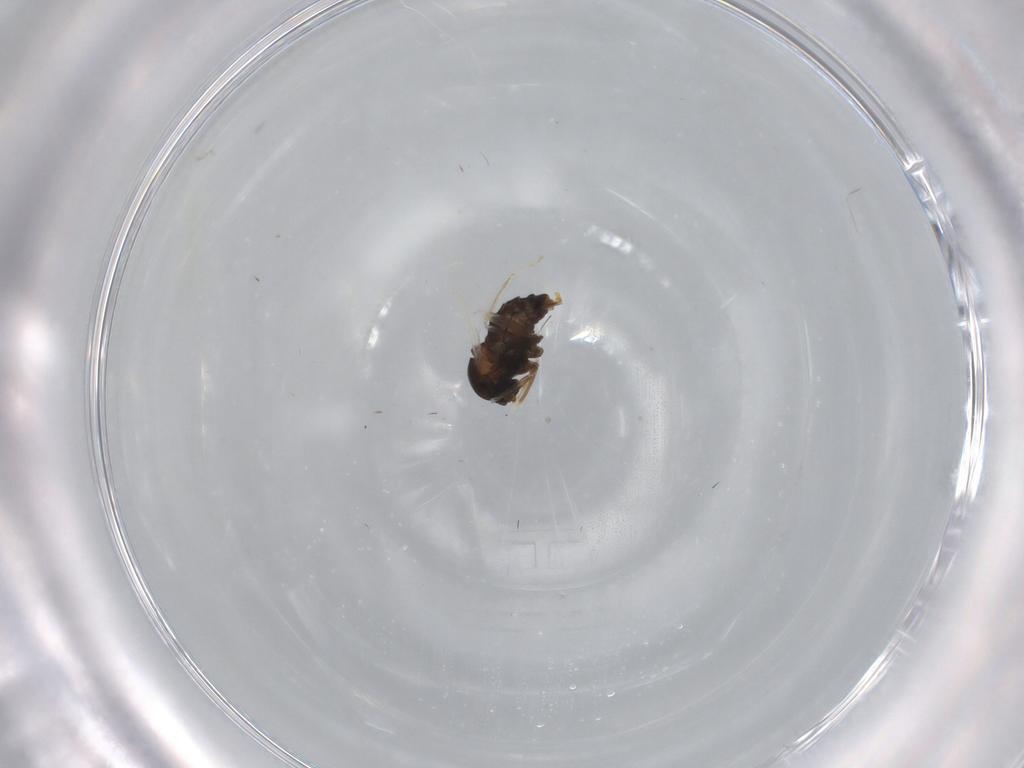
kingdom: Animalia
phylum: Arthropoda
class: Insecta
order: Diptera
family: Cecidomyiidae
